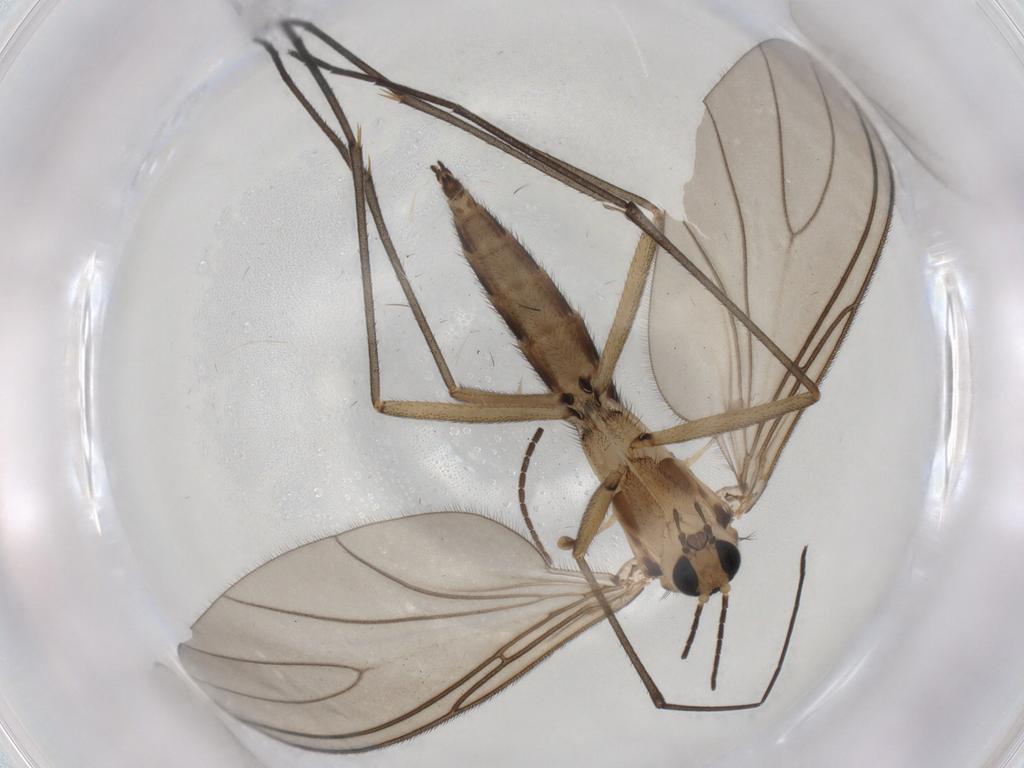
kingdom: Animalia
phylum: Arthropoda
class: Insecta
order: Diptera
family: Sciaridae
